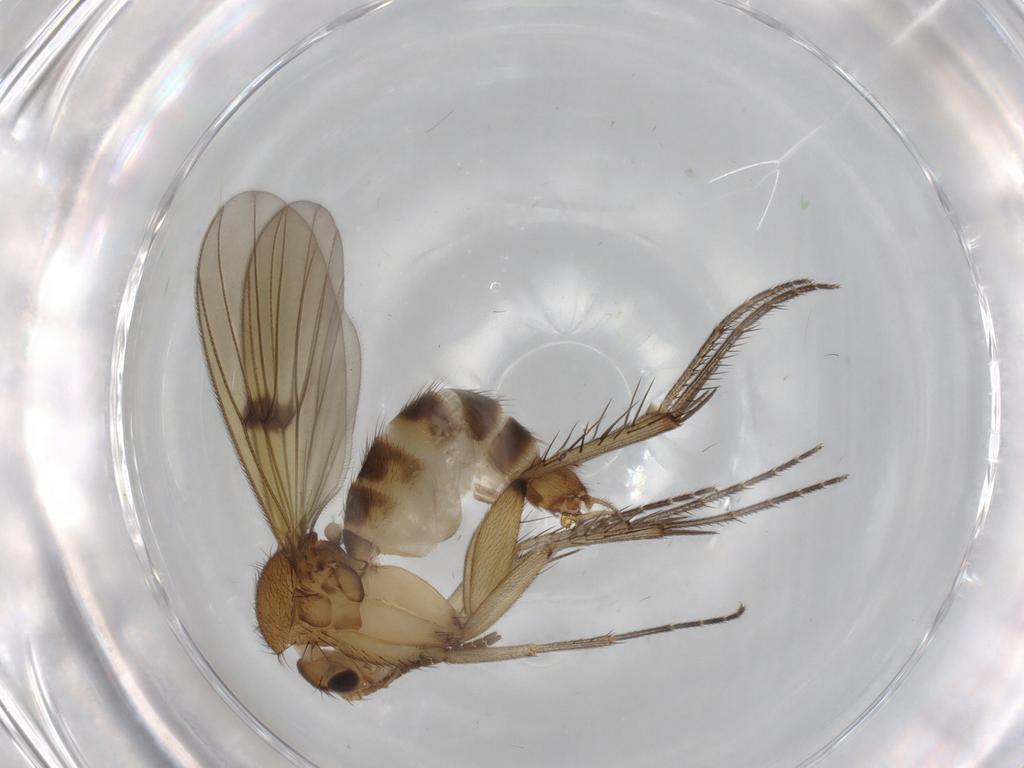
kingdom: Animalia
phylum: Arthropoda
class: Insecta
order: Diptera
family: Mycetophilidae
